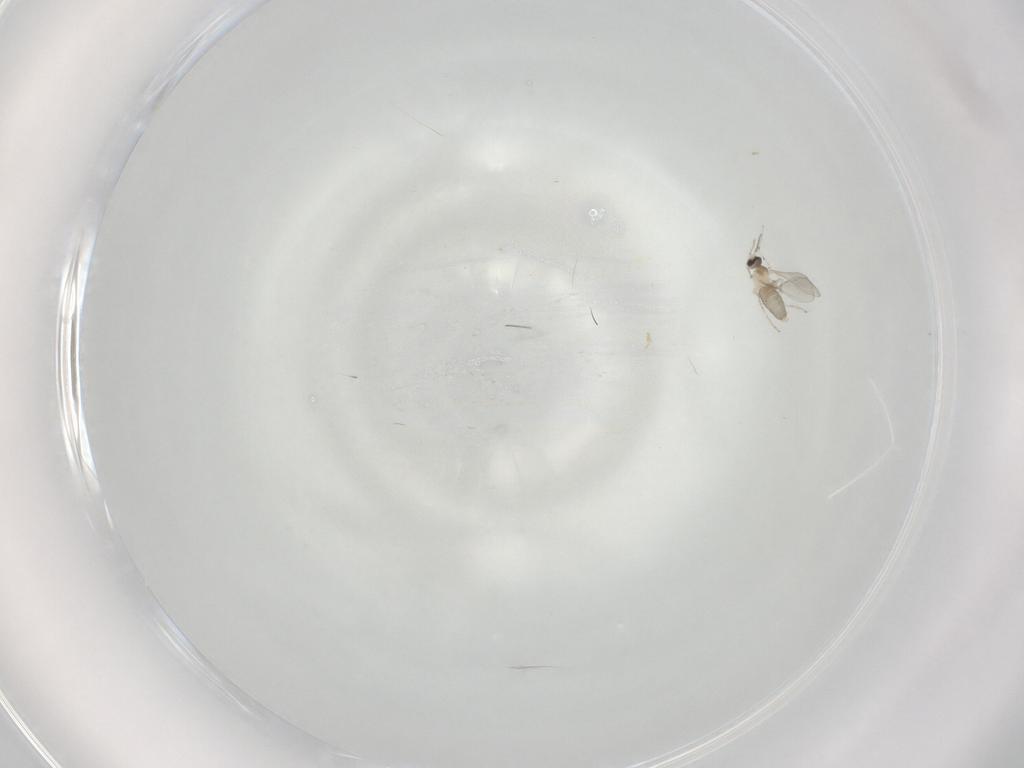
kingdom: Animalia
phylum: Arthropoda
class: Insecta
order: Diptera
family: Cecidomyiidae
